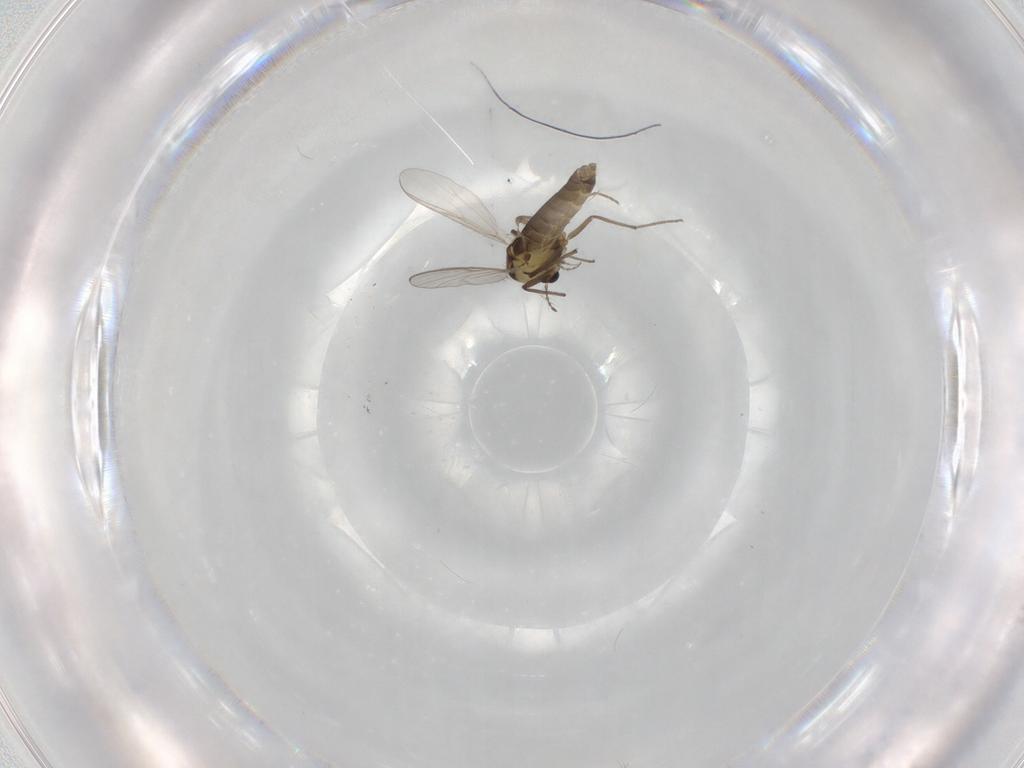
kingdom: Animalia
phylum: Arthropoda
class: Insecta
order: Diptera
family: Chironomidae
